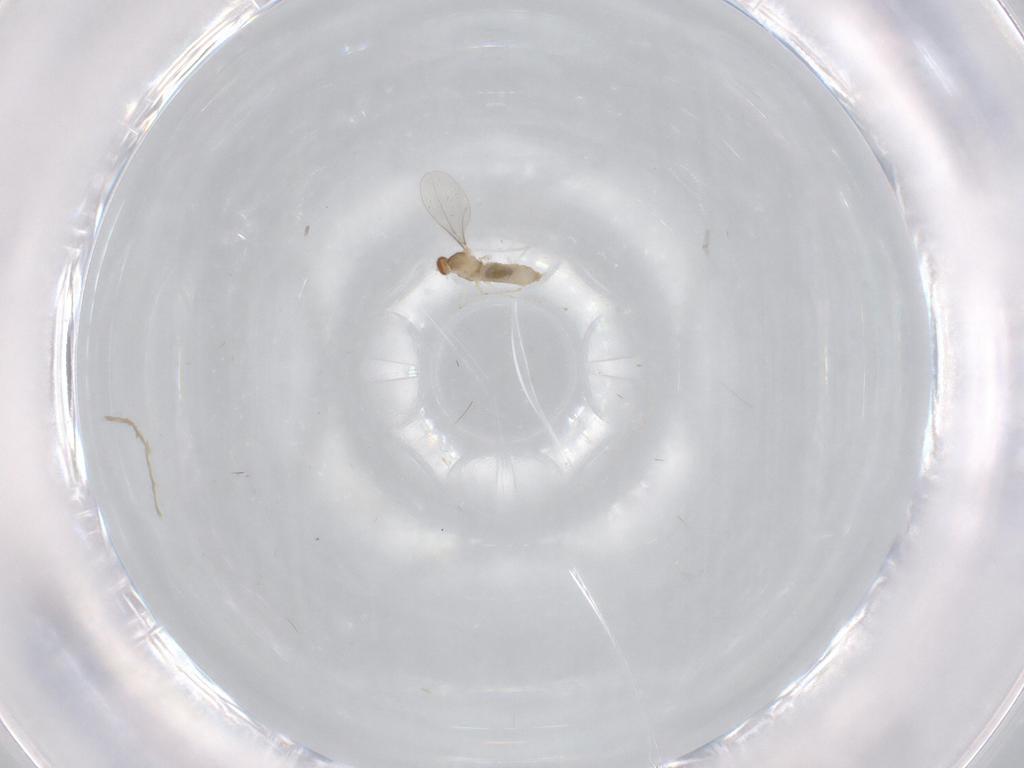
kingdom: Animalia
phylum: Arthropoda
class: Insecta
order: Diptera
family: Cecidomyiidae
